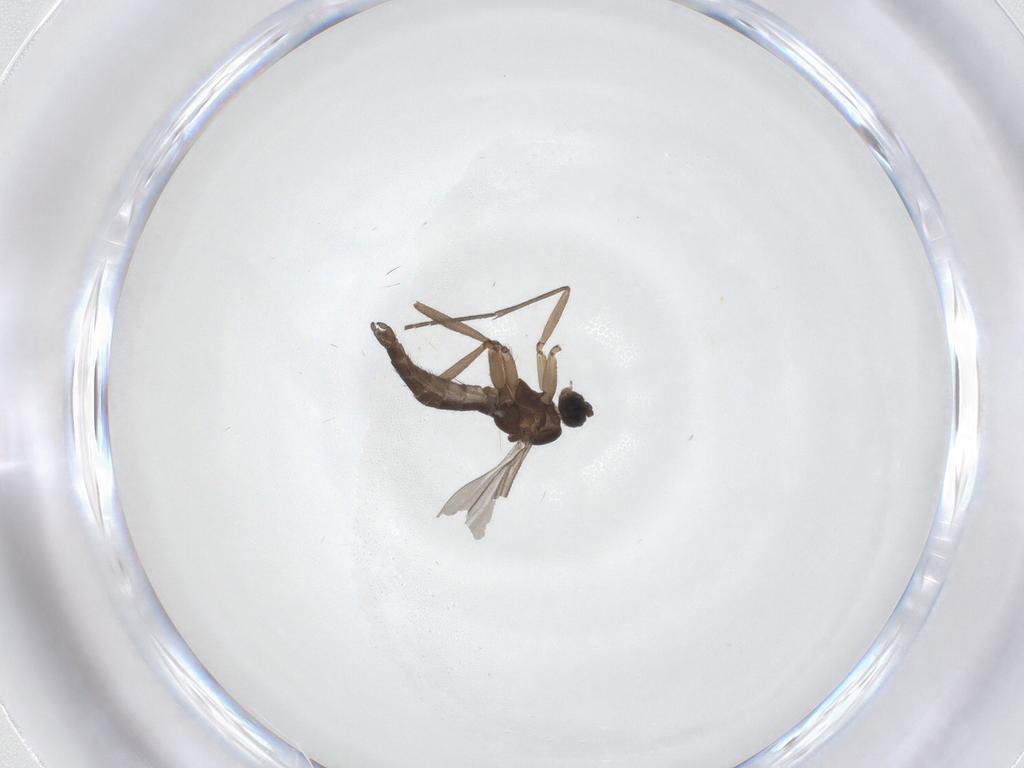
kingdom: Animalia
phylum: Arthropoda
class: Insecta
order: Diptera
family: Sciaridae
